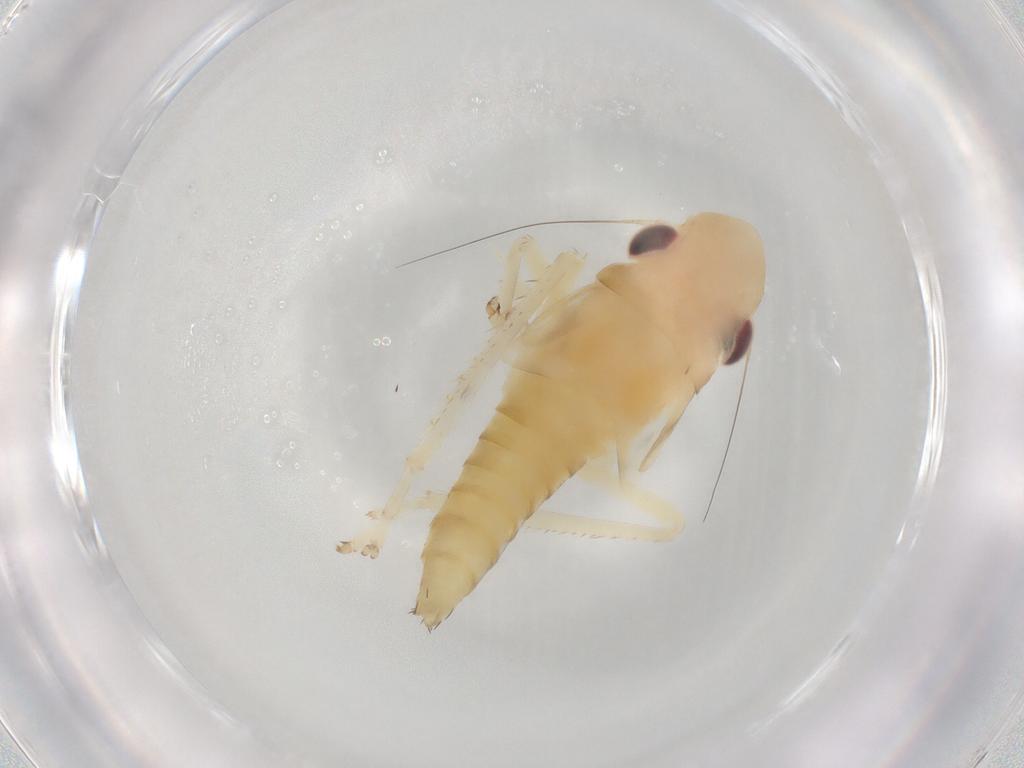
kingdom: Animalia
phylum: Arthropoda
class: Insecta
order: Hemiptera
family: Cicadellidae
